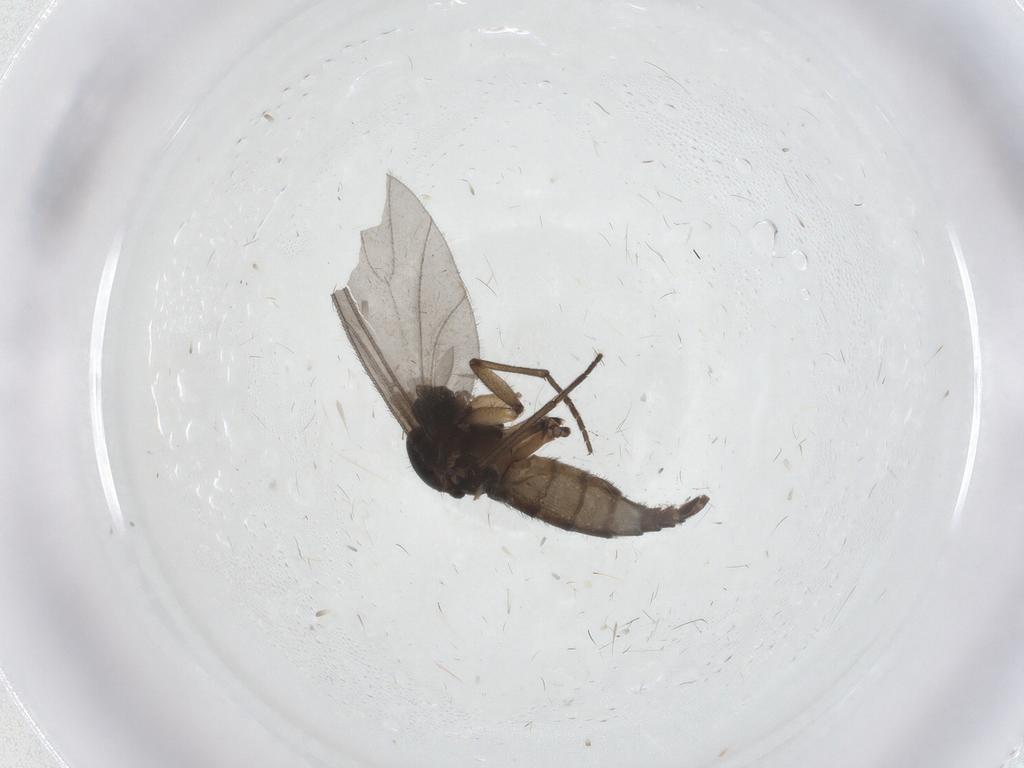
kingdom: Animalia
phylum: Arthropoda
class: Insecta
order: Diptera
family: Sciaridae
